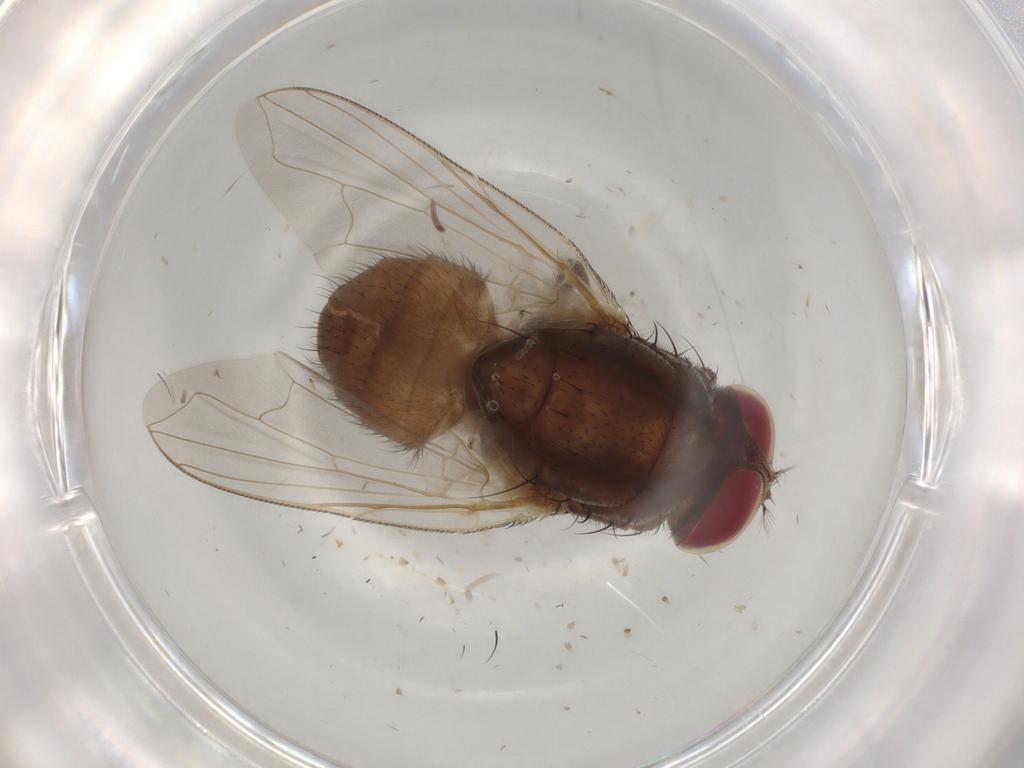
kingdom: Animalia
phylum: Arthropoda
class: Insecta
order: Diptera
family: Muscidae
